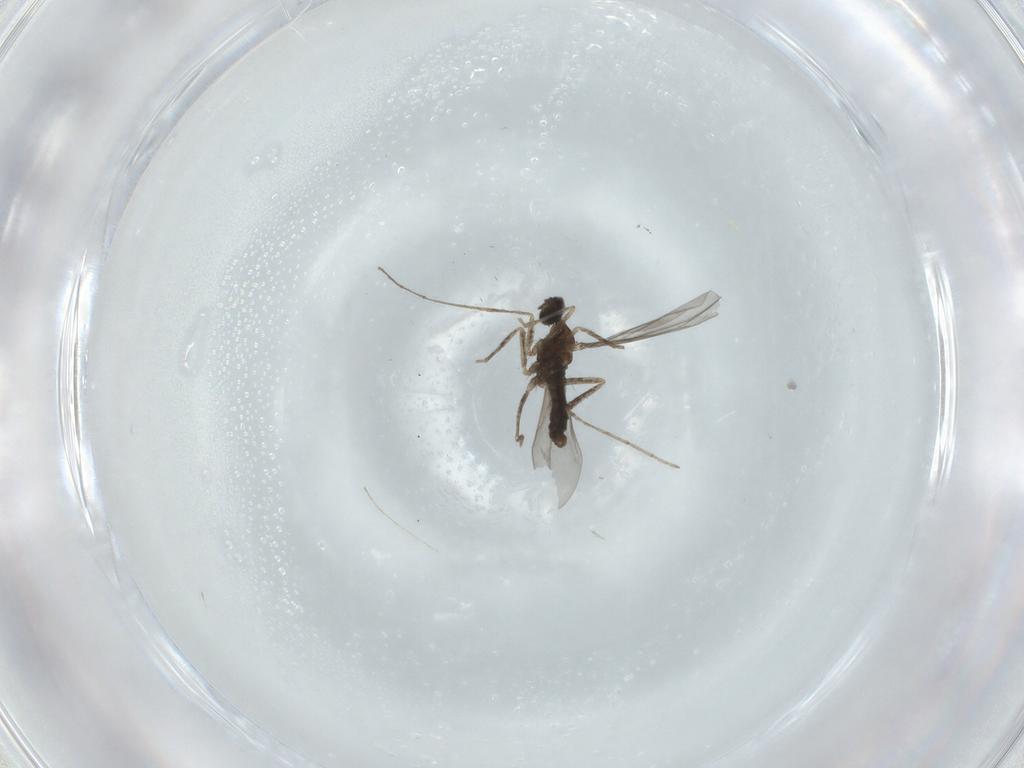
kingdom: Animalia
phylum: Arthropoda
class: Insecta
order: Diptera
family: Cecidomyiidae
